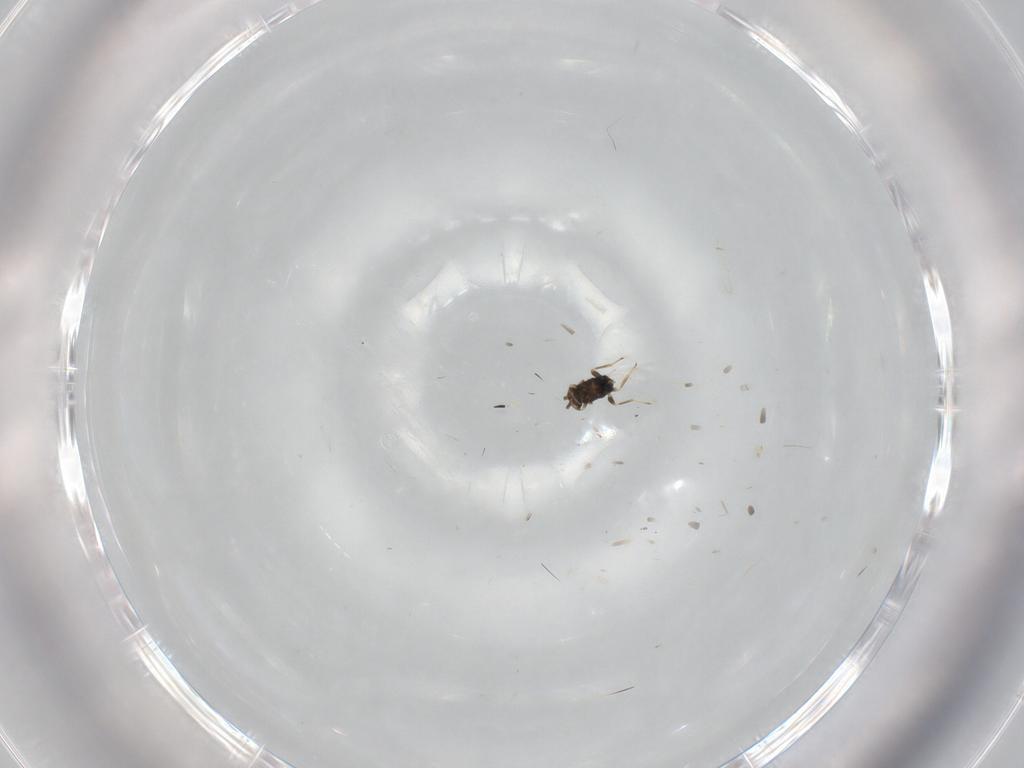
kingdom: Animalia
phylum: Arthropoda
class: Insecta
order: Hymenoptera
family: Aphelinidae
